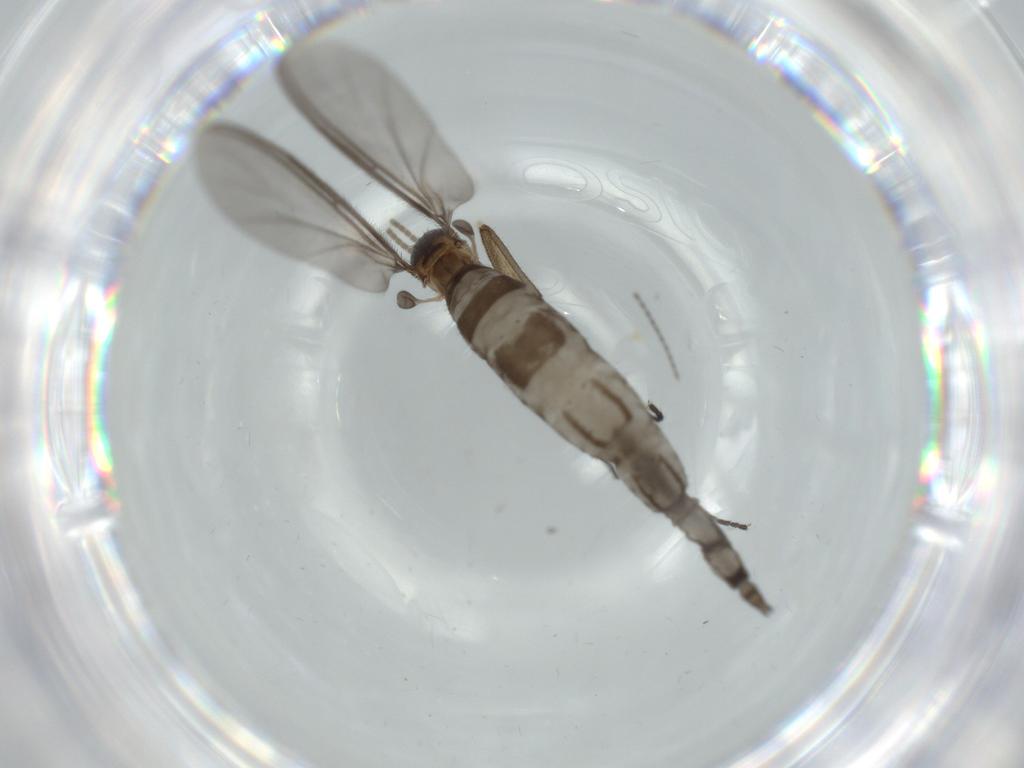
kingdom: Animalia
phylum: Arthropoda
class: Insecta
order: Diptera
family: Sciaridae
